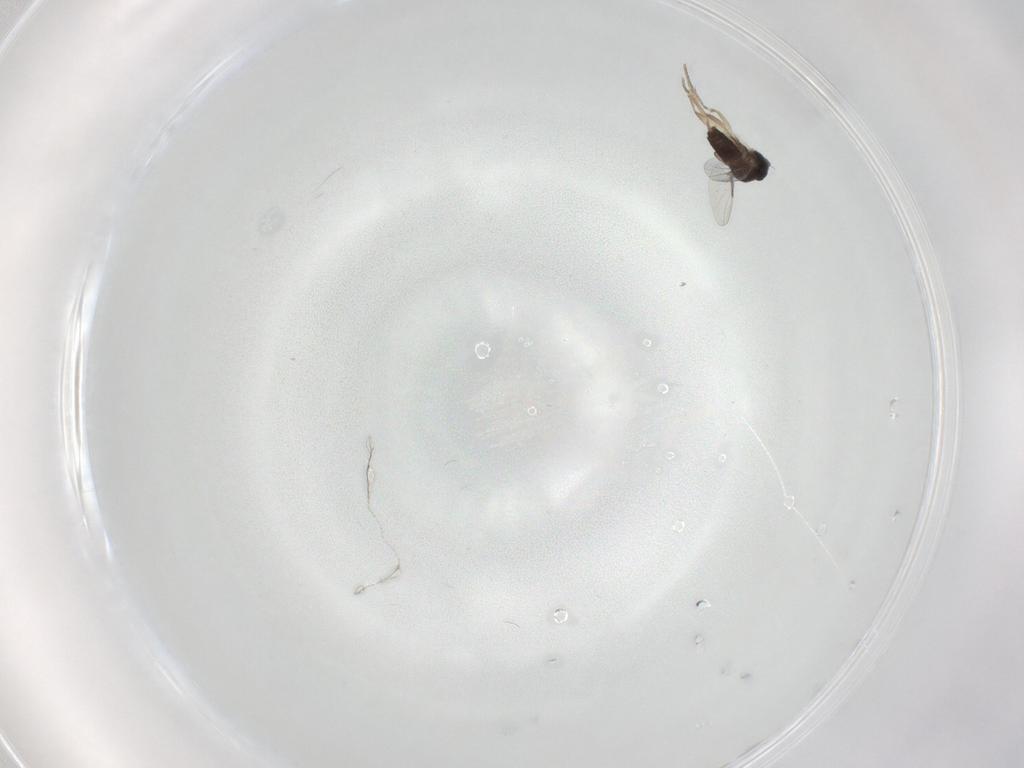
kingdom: Animalia
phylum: Arthropoda
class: Insecta
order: Diptera
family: Phoridae
